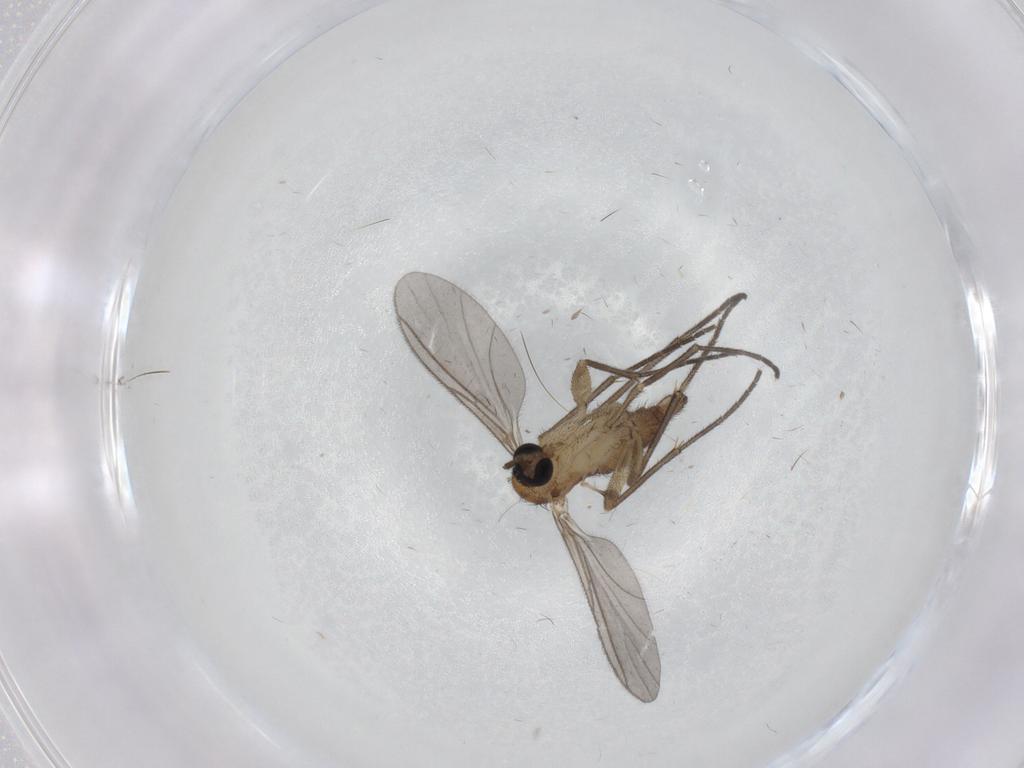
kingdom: Animalia
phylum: Arthropoda
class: Insecta
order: Diptera
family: Sciaridae
